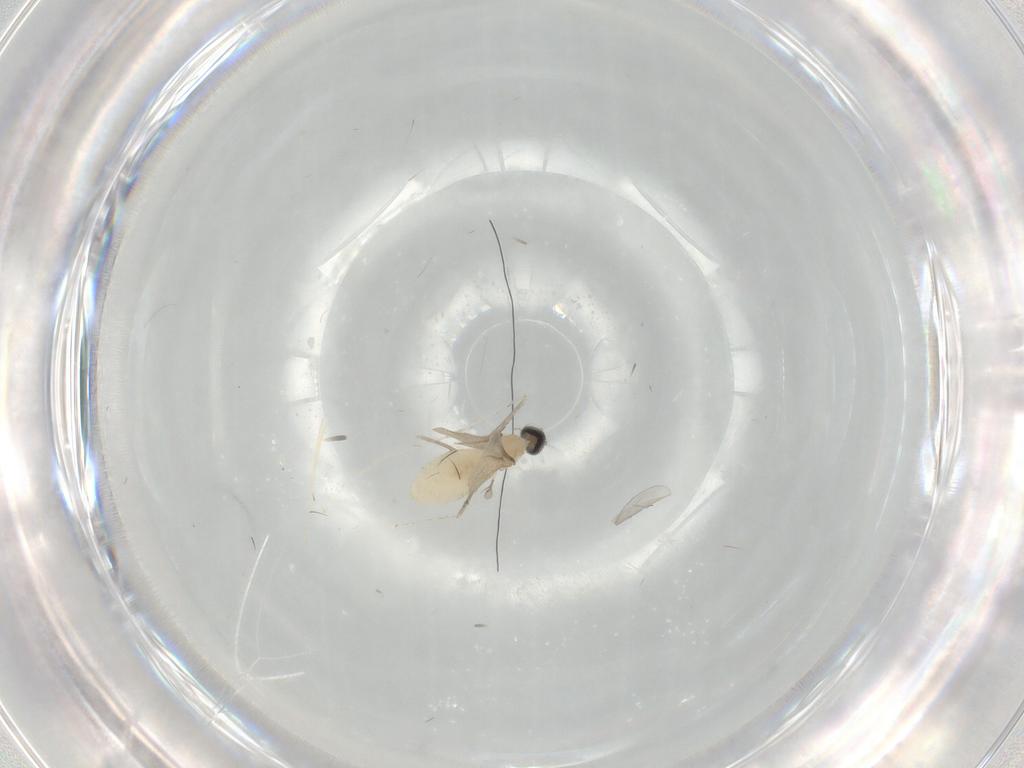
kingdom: Animalia
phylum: Arthropoda
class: Insecta
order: Diptera
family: Cecidomyiidae
